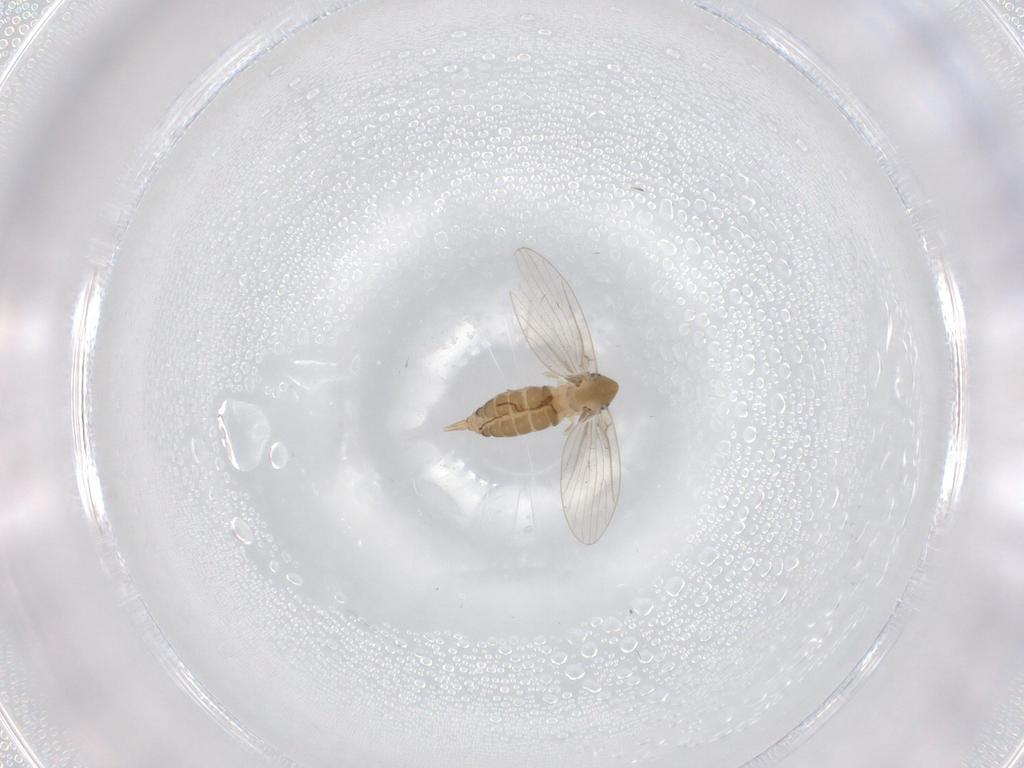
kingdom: Animalia
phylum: Arthropoda
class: Insecta
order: Diptera
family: Psychodidae
